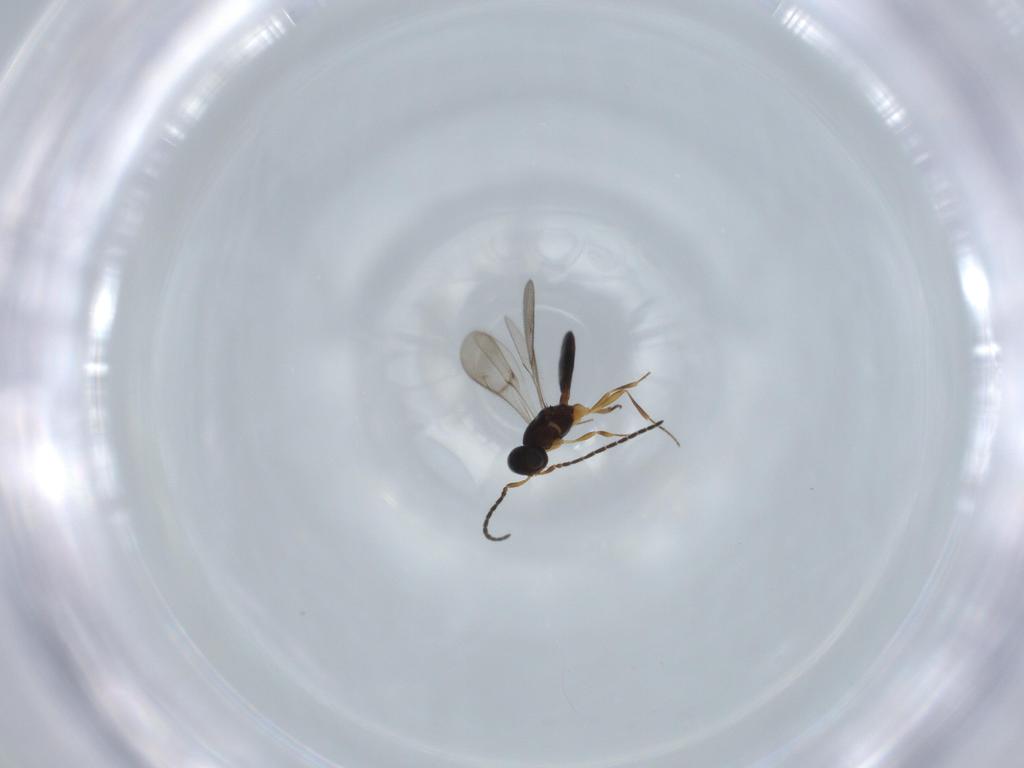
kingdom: Animalia
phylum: Arthropoda
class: Insecta
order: Hymenoptera
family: Scelionidae
